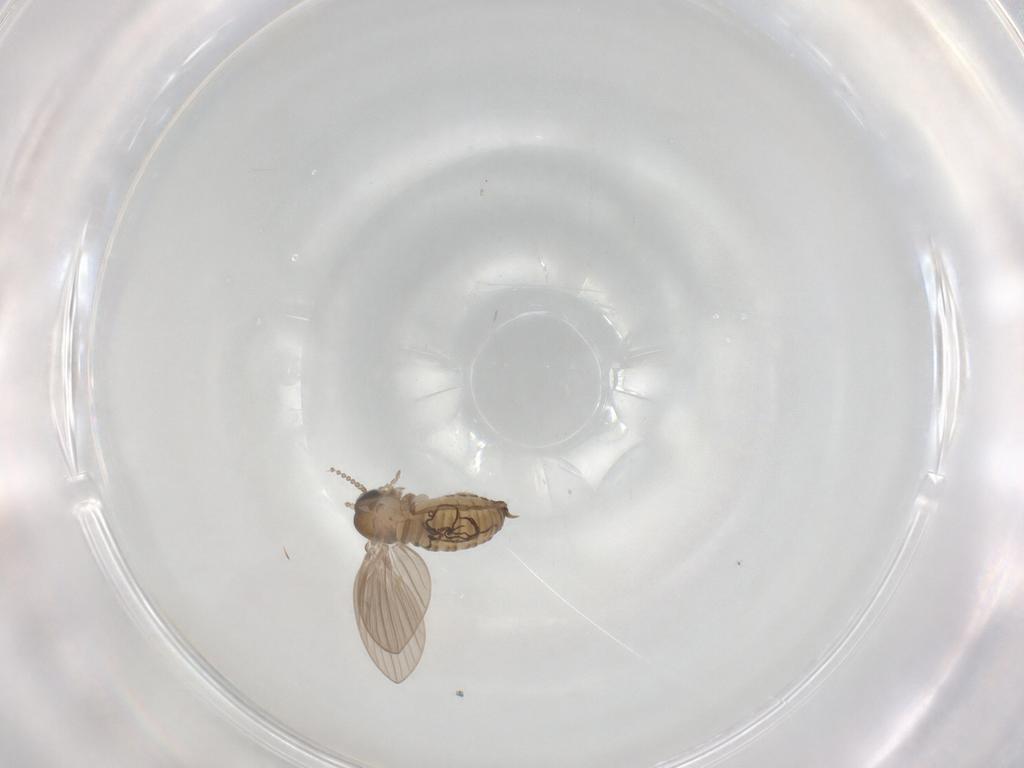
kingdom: Animalia
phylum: Arthropoda
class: Insecta
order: Diptera
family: Psychodidae
